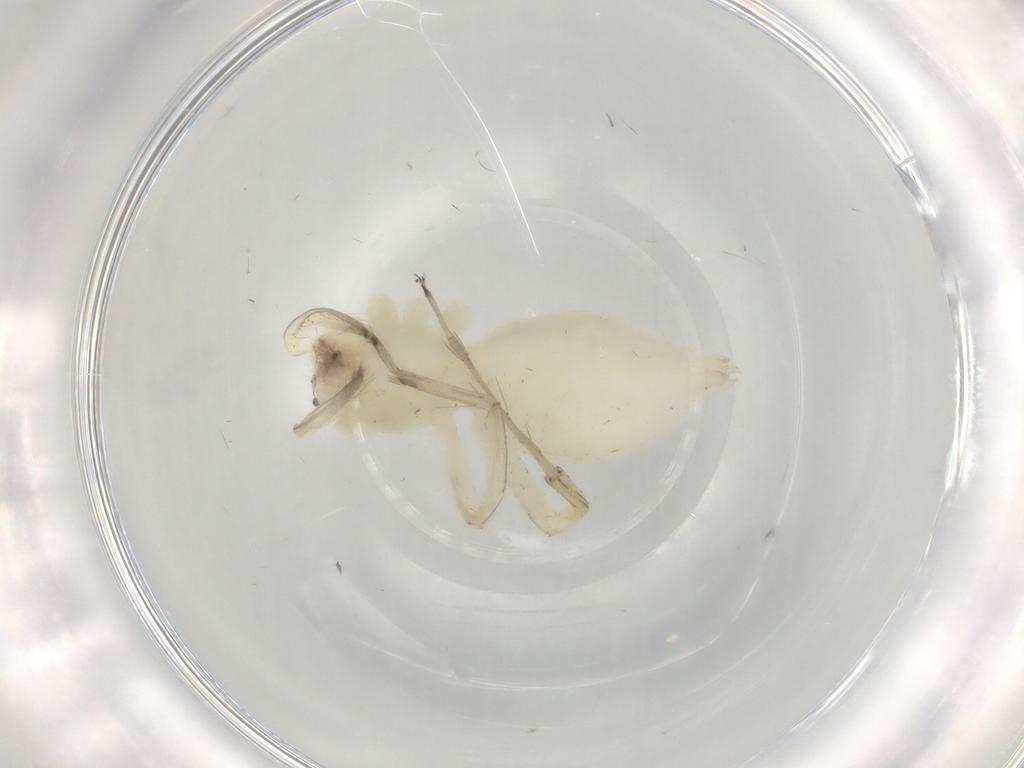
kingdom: Animalia
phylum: Arthropoda
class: Arachnida
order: Araneae
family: Anyphaenidae
